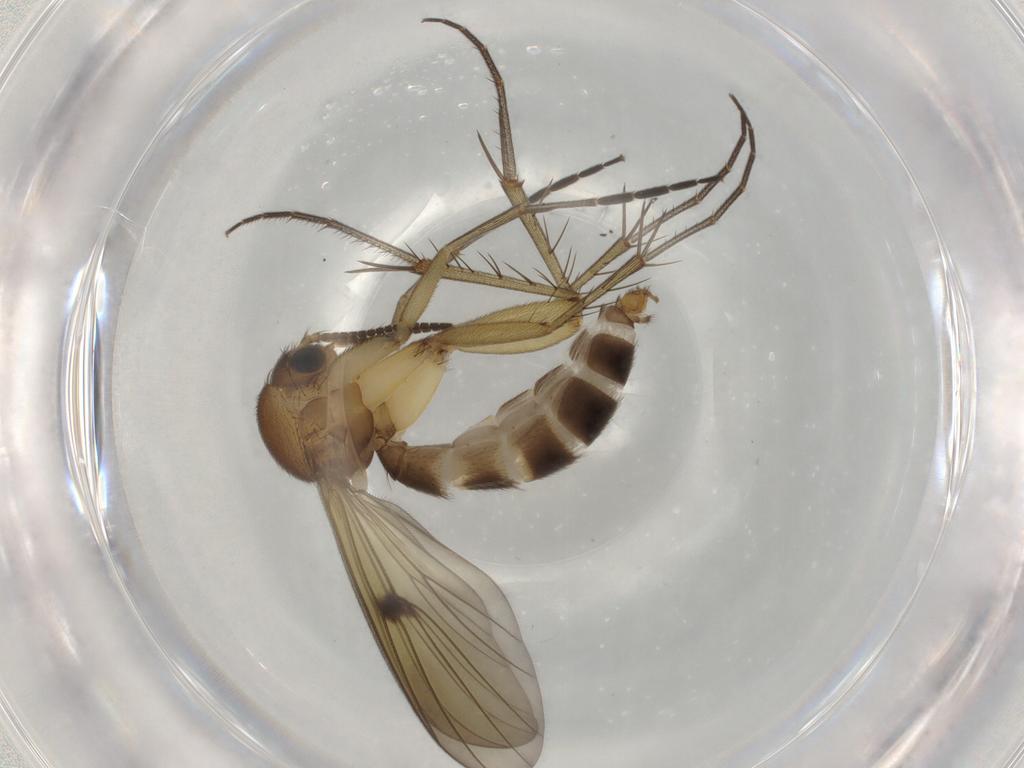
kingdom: Animalia
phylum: Arthropoda
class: Insecta
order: Diptera
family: Mycetophilidae
